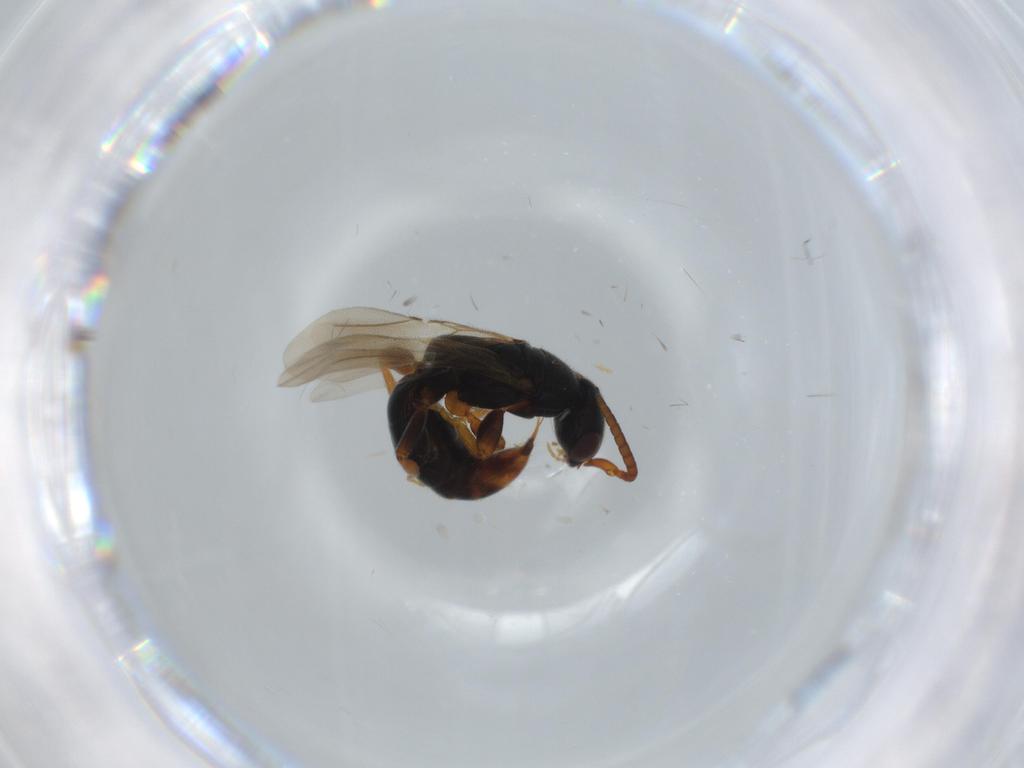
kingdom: Animalia
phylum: Arthropoda
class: Insecta
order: Hymenoptera
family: Bethylidae
